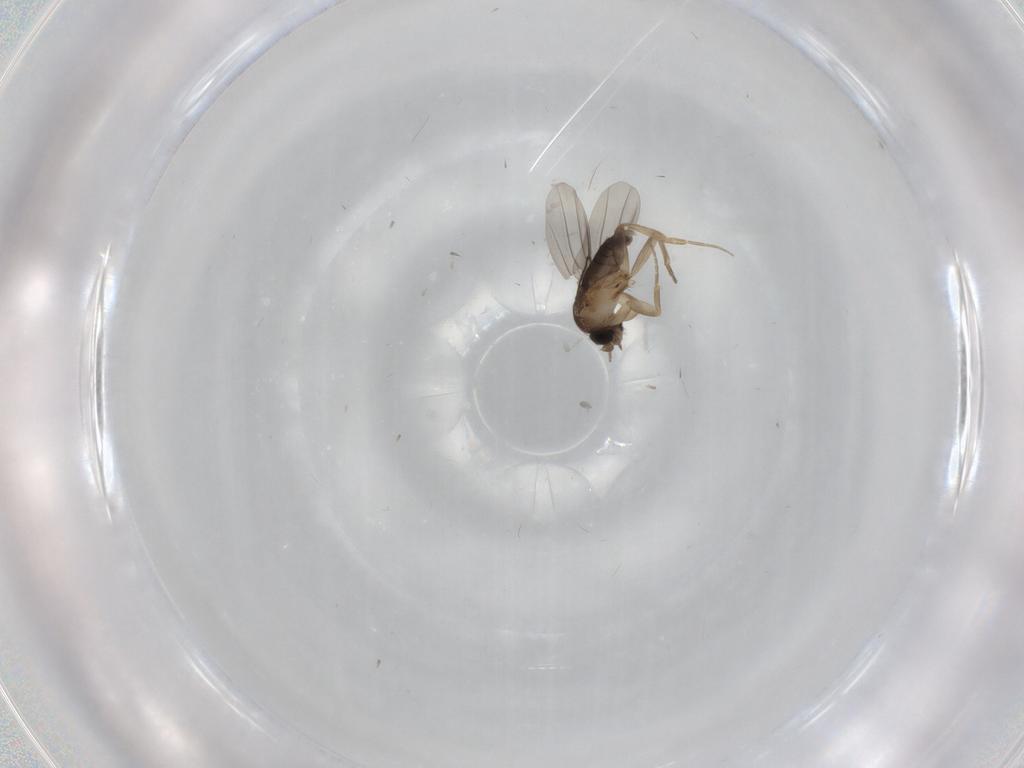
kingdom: Animalia
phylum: Arthropoda
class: Insecta
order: Diptera
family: Phoridae
